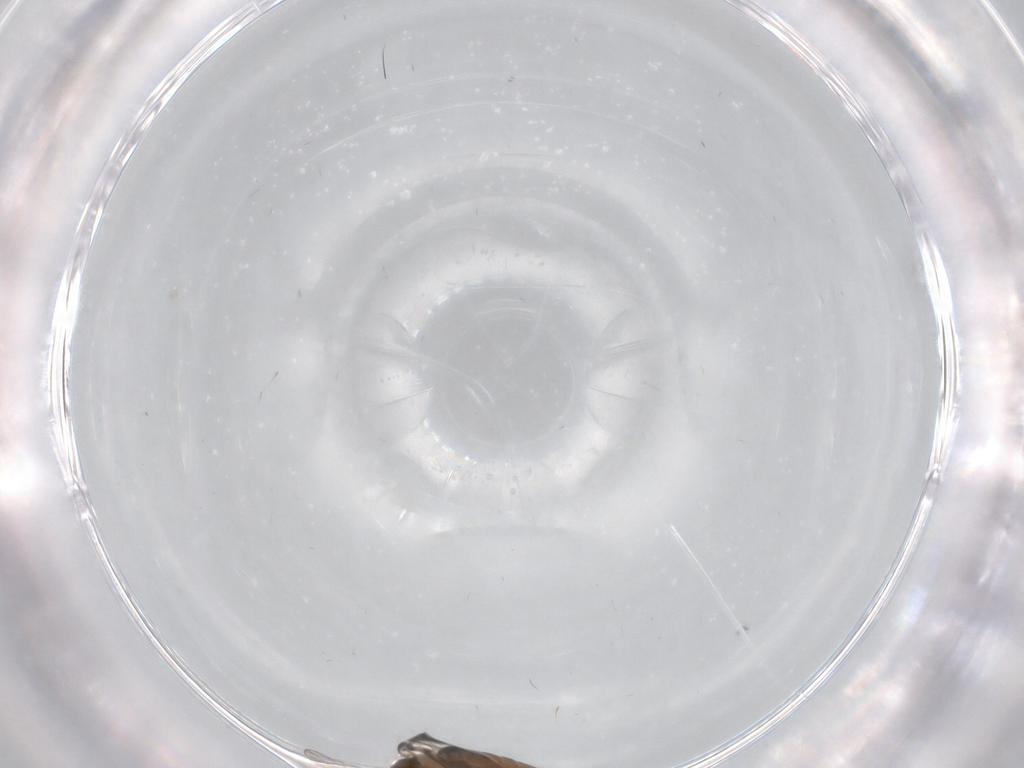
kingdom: Animalia
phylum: Arthropoda
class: Insecta
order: Diptera
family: Psychodidae
